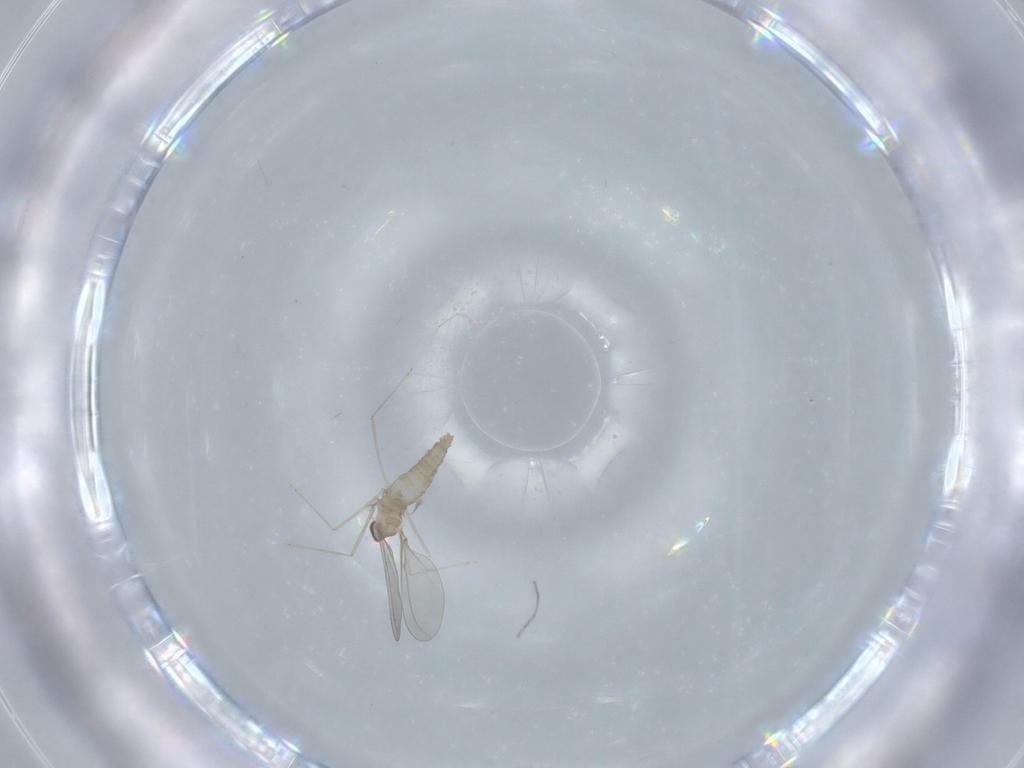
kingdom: Animalia
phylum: Arthropoda
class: Insecta
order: Diptera
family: Cecidomyiidae
